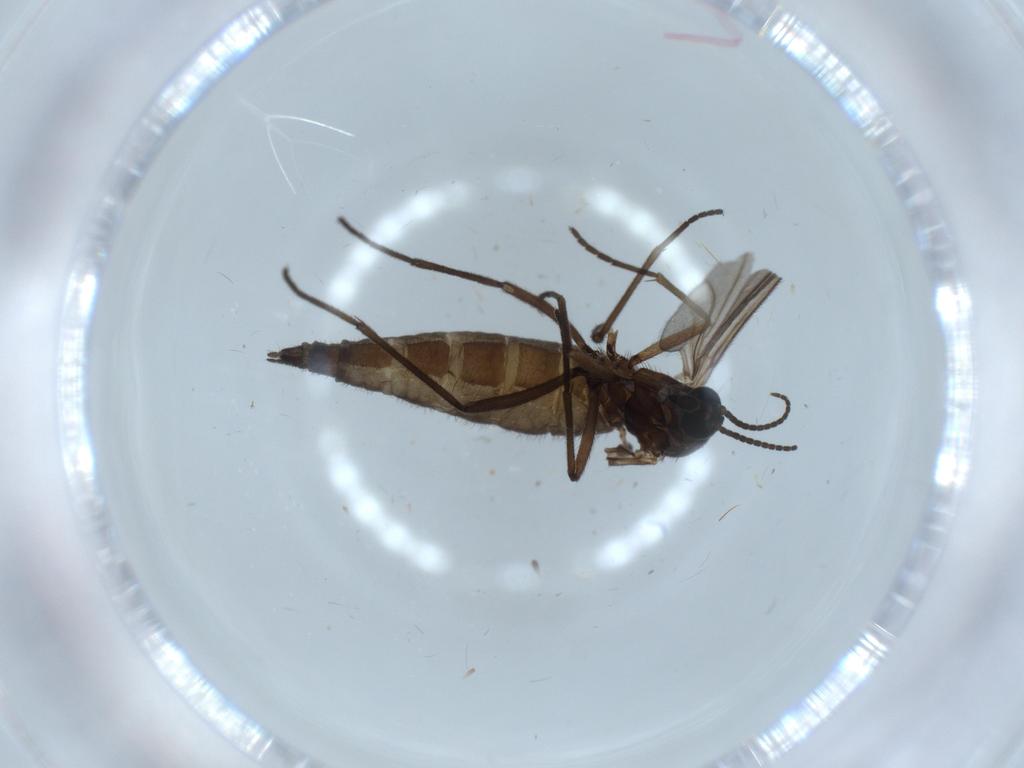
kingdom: Animalia
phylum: Arthropoda
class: Insecta
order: Diptera
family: Sciaridae
